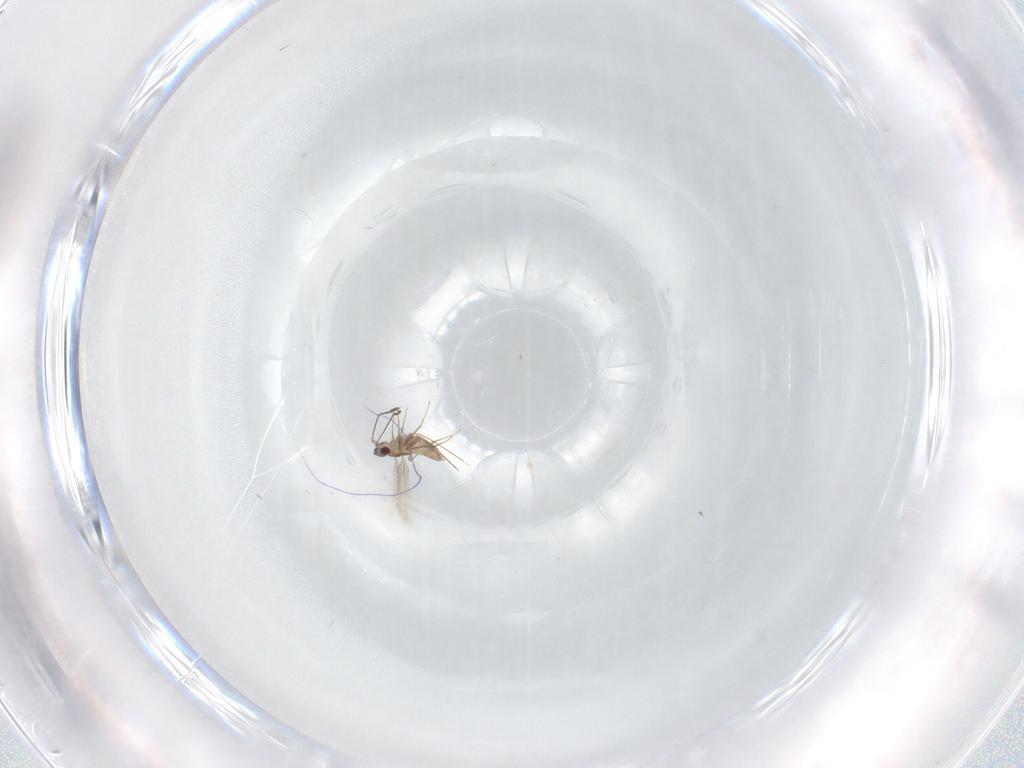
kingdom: Animalia
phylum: Arthropoda
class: Insecta
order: Hymenoptera
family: Mymaridae
